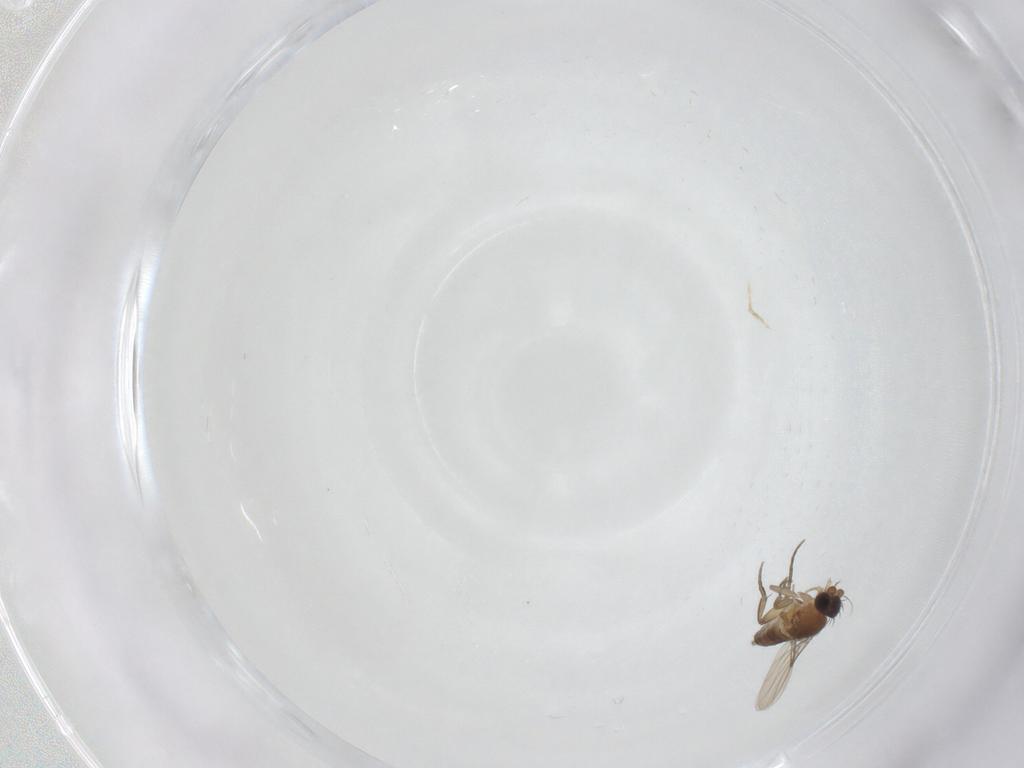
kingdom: Animalia
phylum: Arthropoda
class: Insecta
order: Diptera
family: Phoridae
